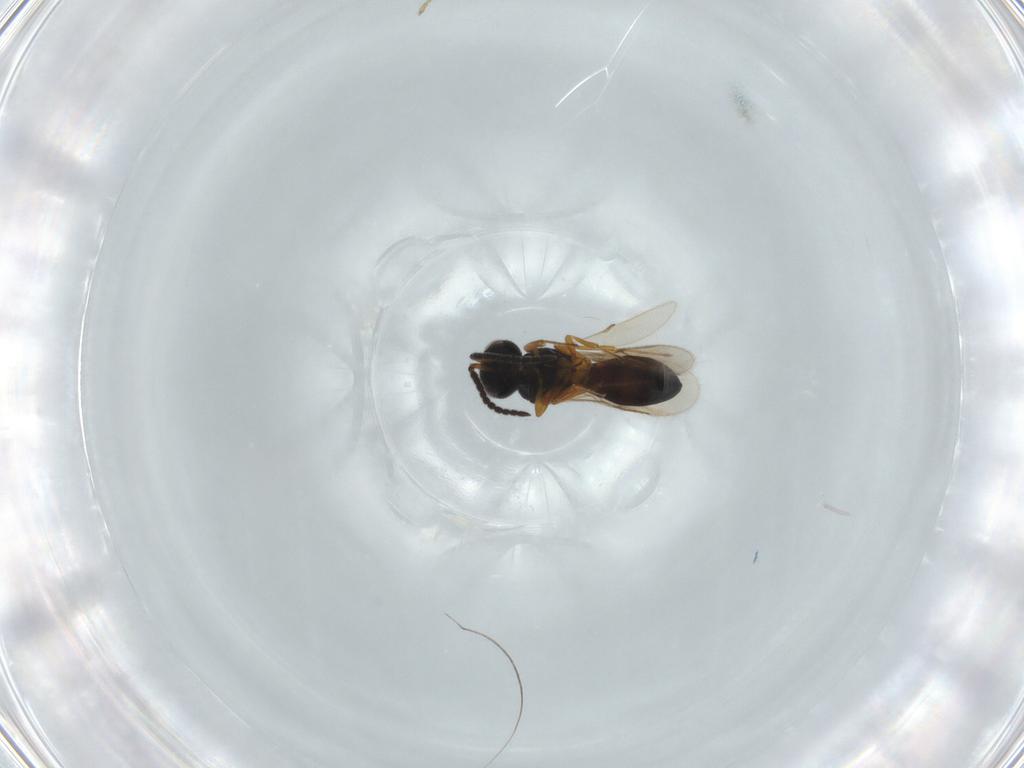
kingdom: Animalia
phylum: Arthropoda
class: Insecta
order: Hymenoptera
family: Scelionidae
